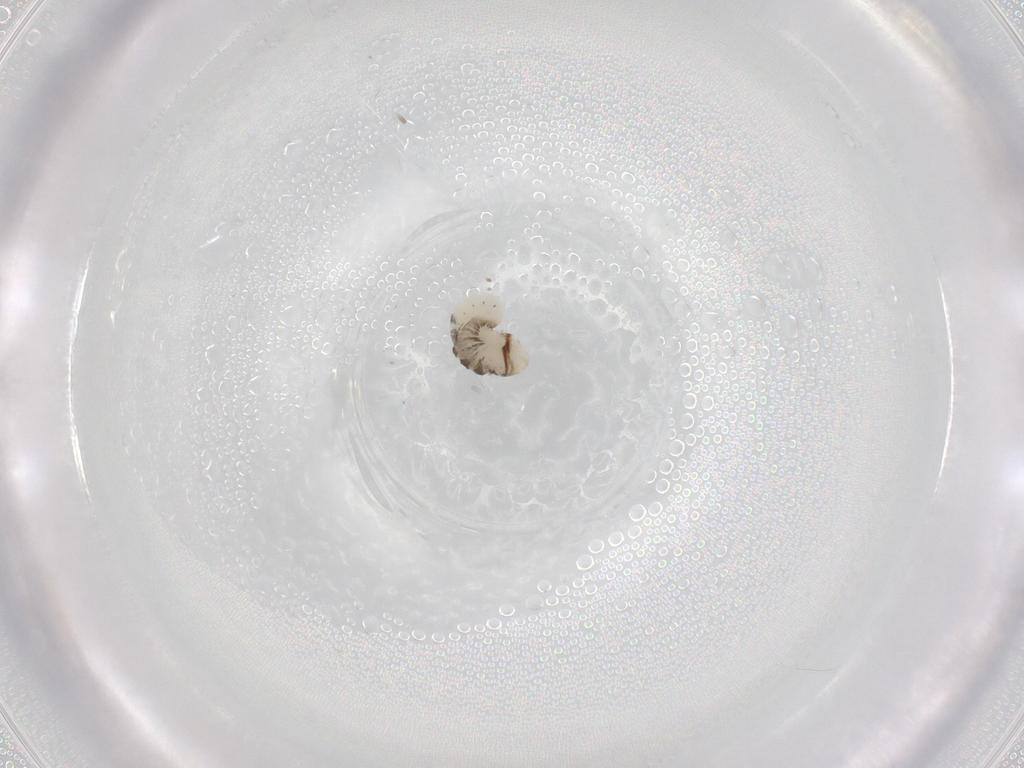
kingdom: Animalia
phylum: Arthropoda
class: Insecta
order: Hymenoptera
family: Dryinidae
